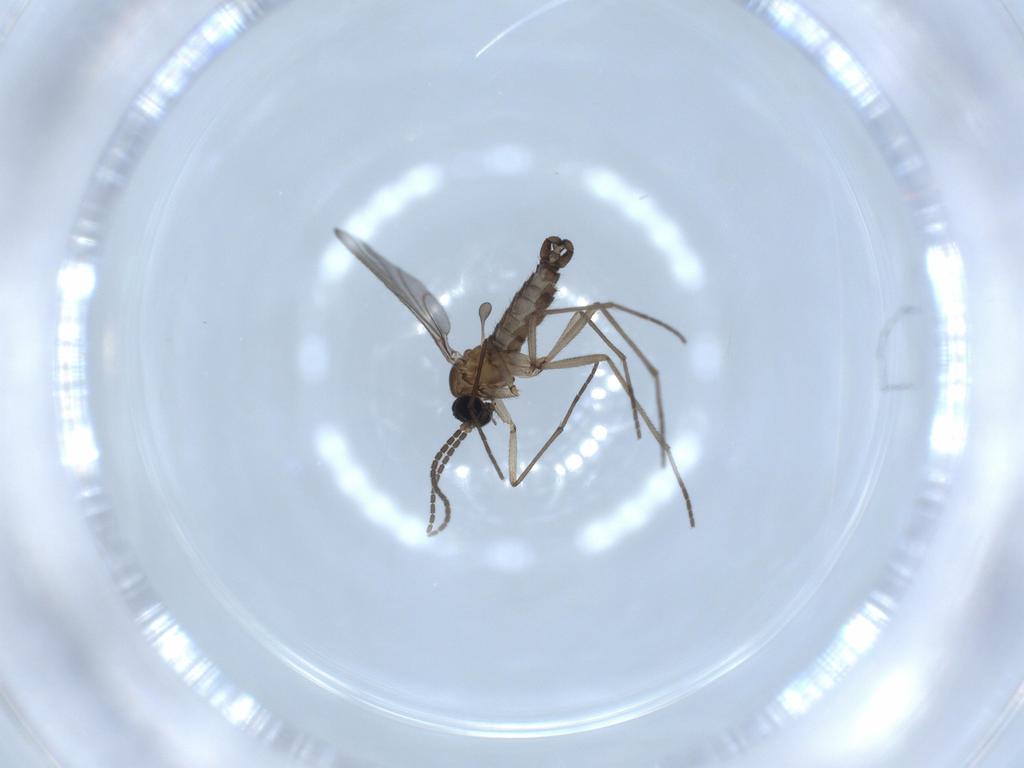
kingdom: Animalia
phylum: Arthropoda
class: Insecta
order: Diptera
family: Sciaridae
